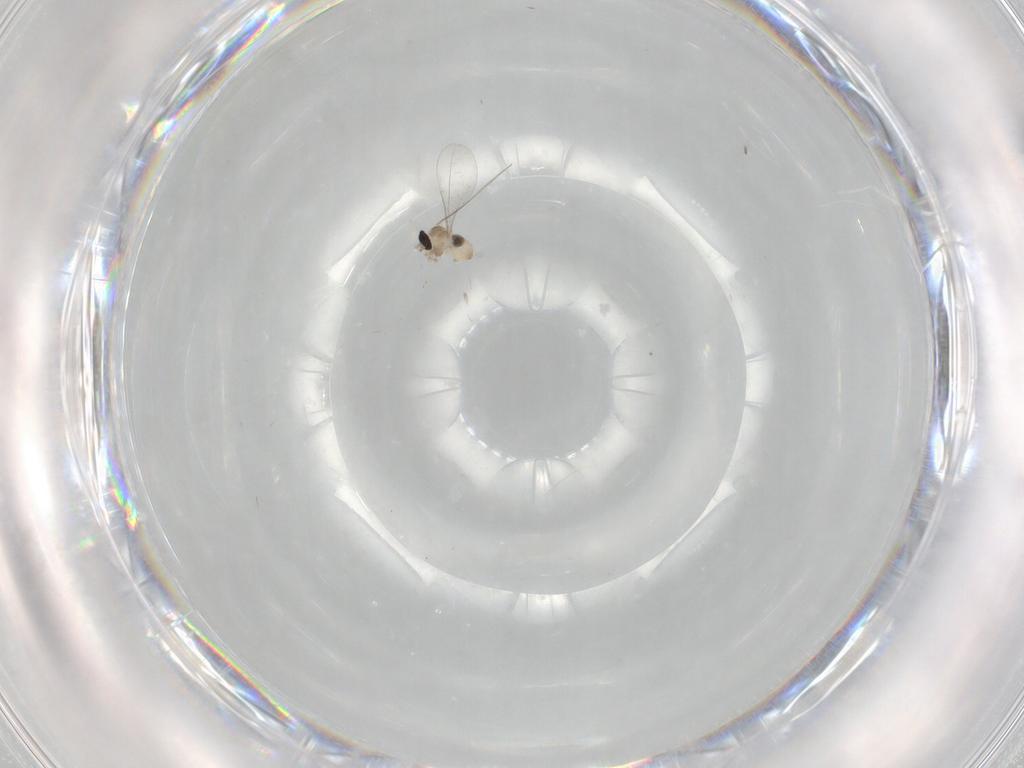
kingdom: Animalia
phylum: Arthropoda
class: Insecta
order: Diptera
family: Cecidomyiidae
